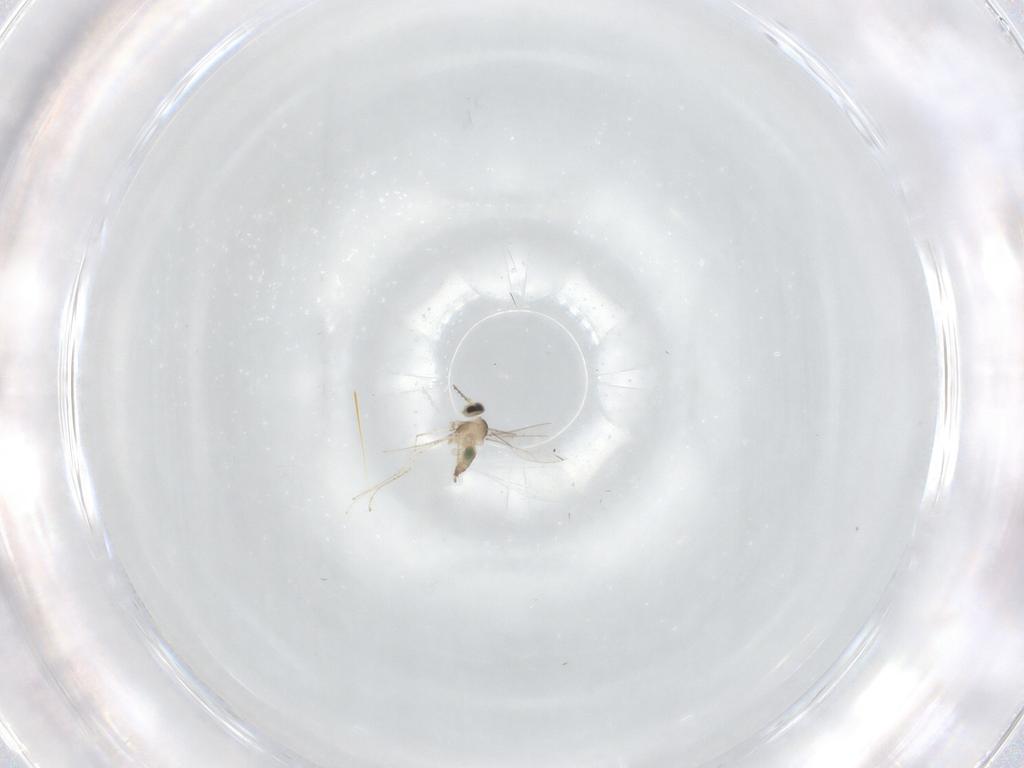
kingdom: Animalia
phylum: Arthropoda
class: Insecta
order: Diptera
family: Cecidomyiidae
